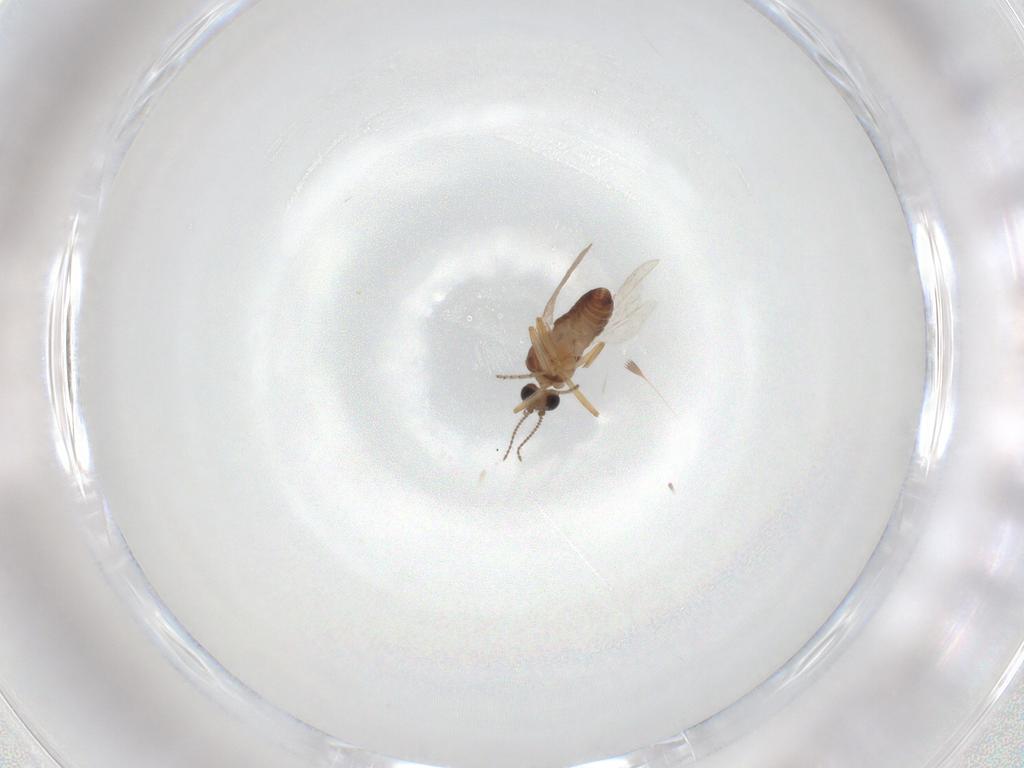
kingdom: Animalia
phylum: Arthropoda
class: Insecta
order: Diptera
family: Ceratopogonidae
